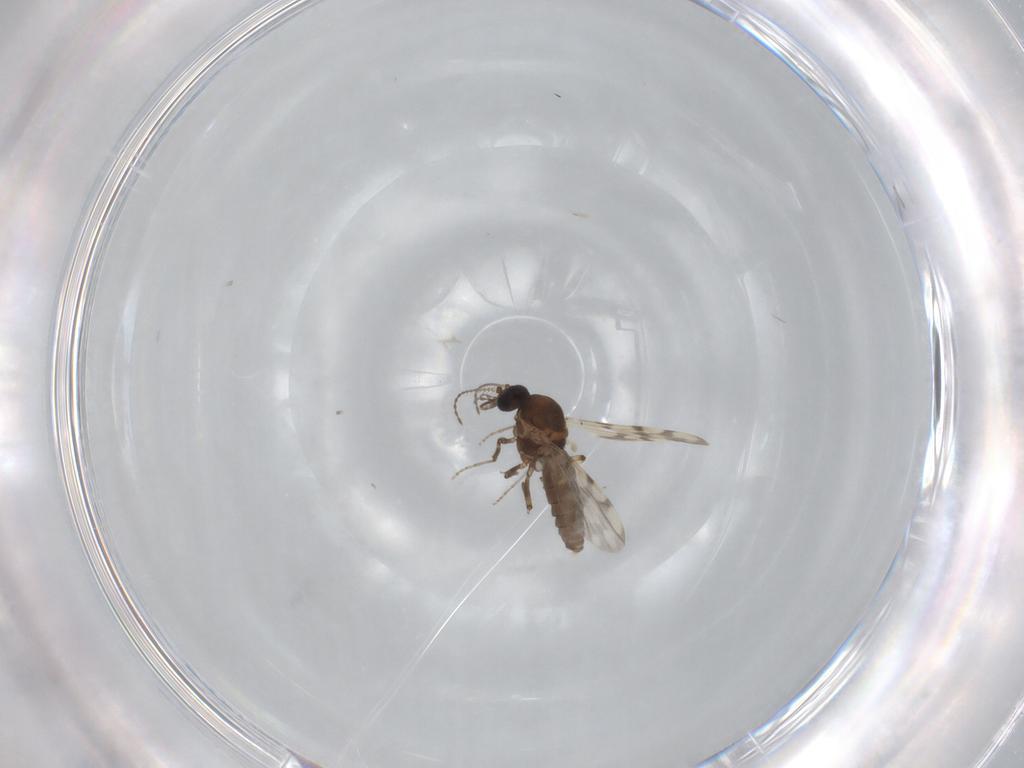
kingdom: Animalia
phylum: Arthropoda
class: Insecta
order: Diptera
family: Ceratopogonidae
